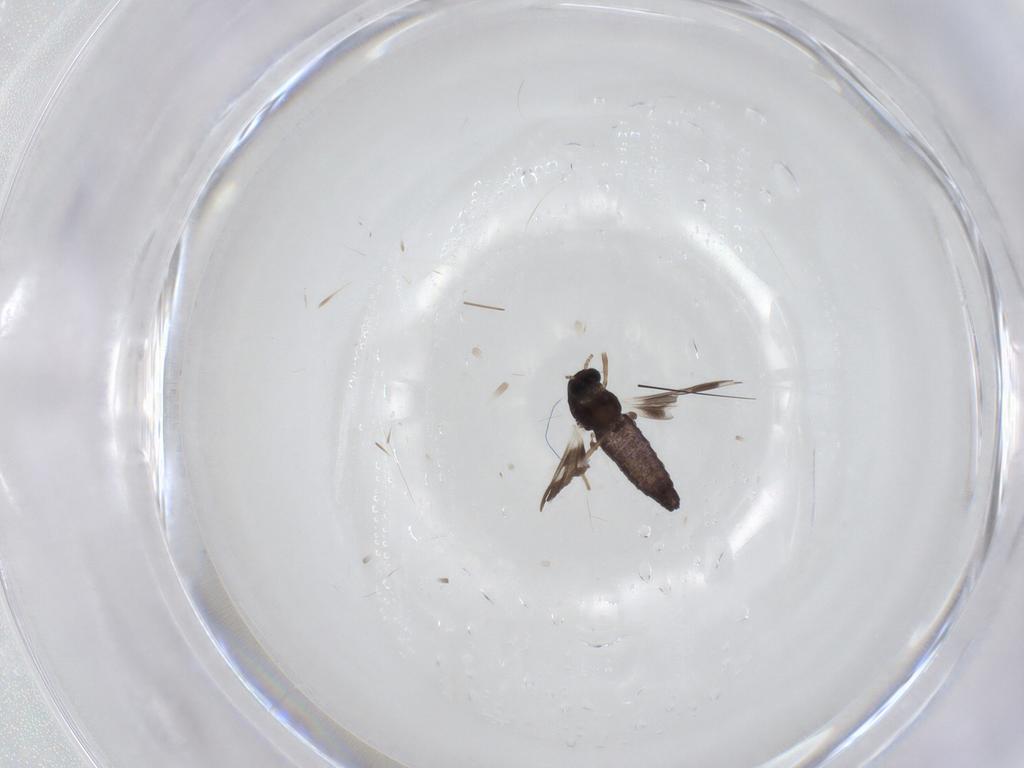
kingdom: Animalia
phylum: Arthropoda
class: Insecta
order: Diptera
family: Chironomidae
